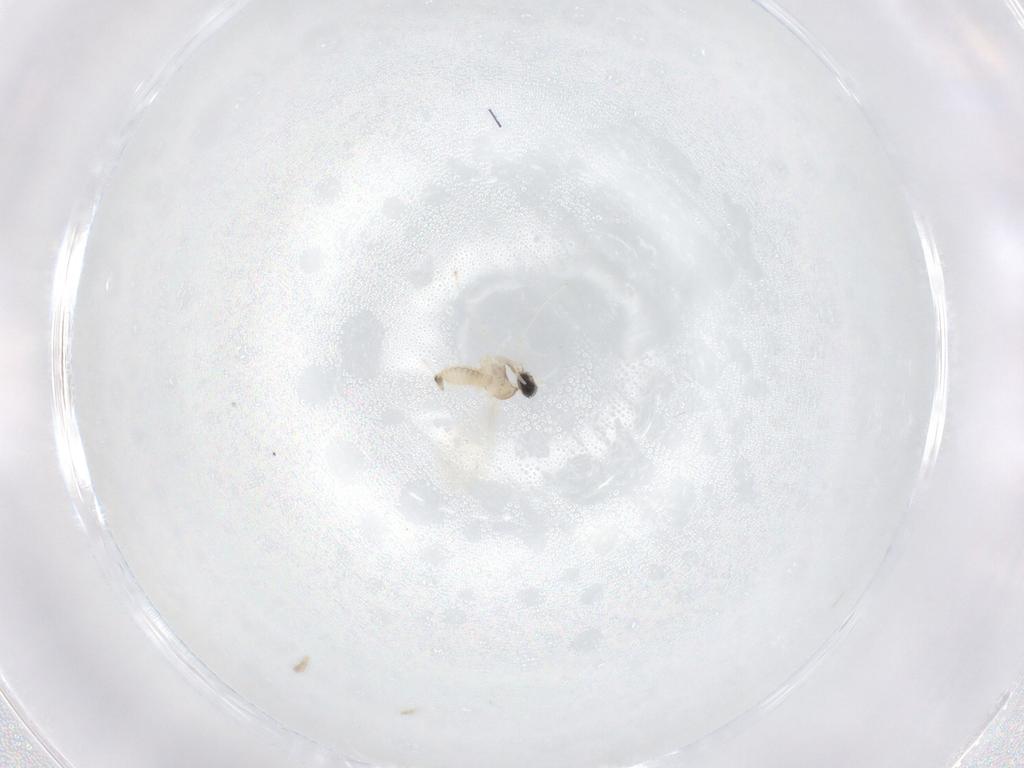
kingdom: Animalia
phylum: Arthropoda
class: Insecta
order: Diptera
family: Cecidomyiidae
